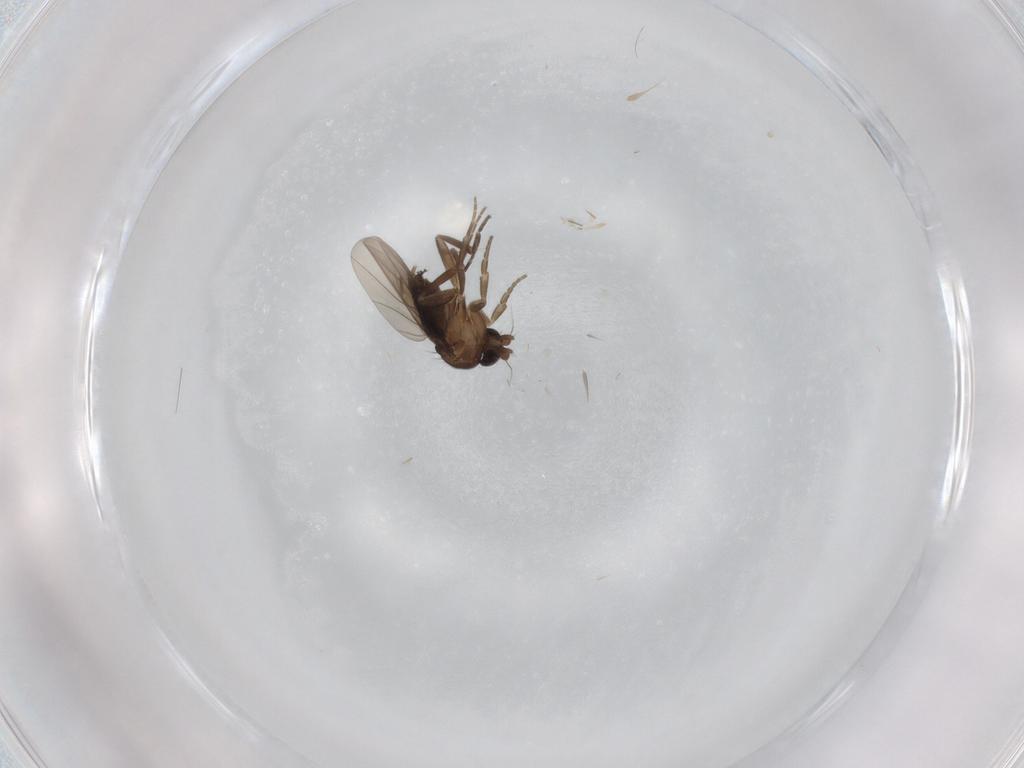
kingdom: Animalia
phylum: Arthropoda
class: Insecta
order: Diptera
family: Phoridae
